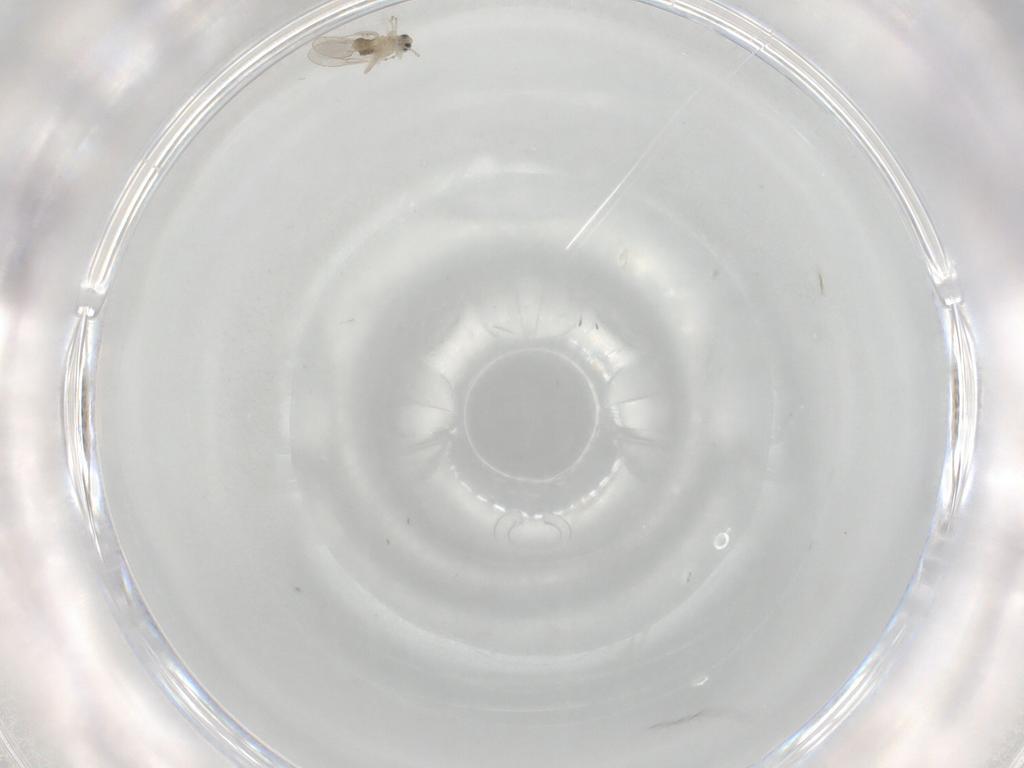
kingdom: Animalia
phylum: Arthropoda
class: Insecta
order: Diptera
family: Cecidomyiidae
